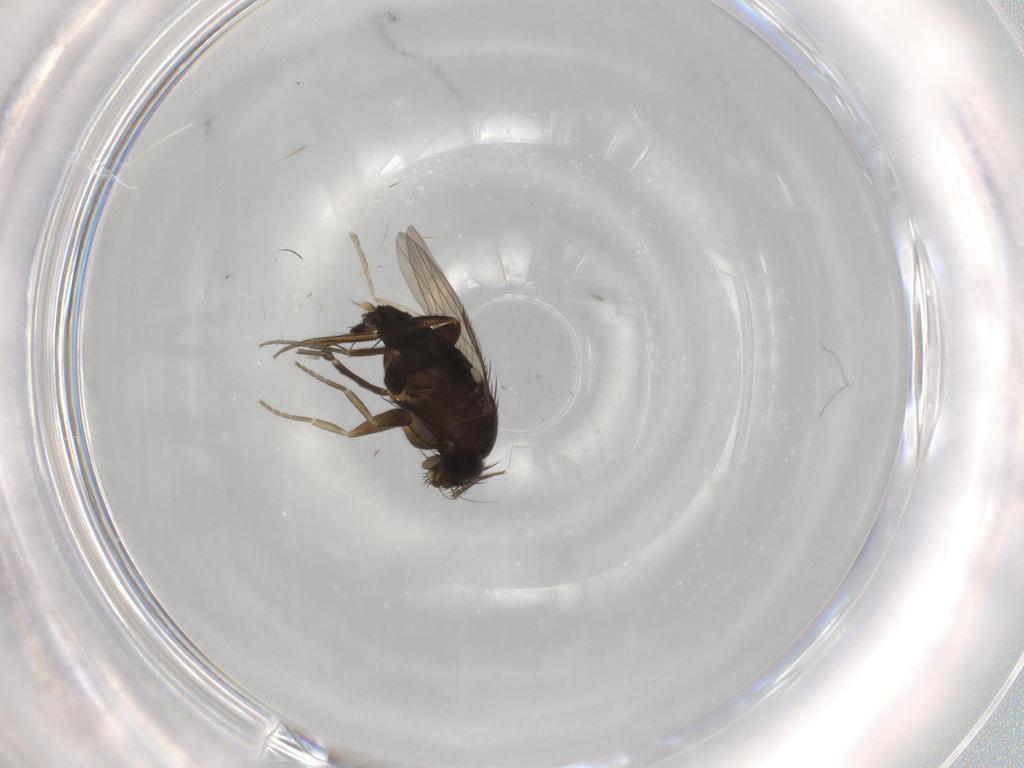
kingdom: Animalia
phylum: Arthropoda
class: Insecta
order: Diptera
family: Phoridae
